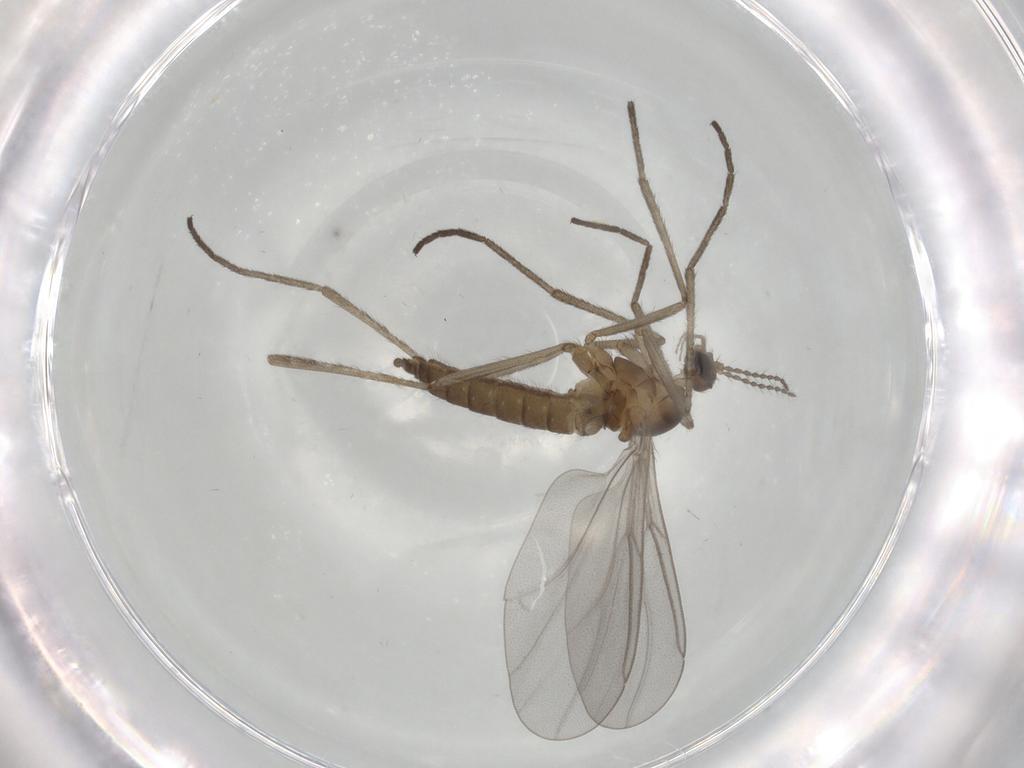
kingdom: Animalia
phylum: Arthropoda
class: Insecta
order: Diptera
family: Cecidomyiidae
